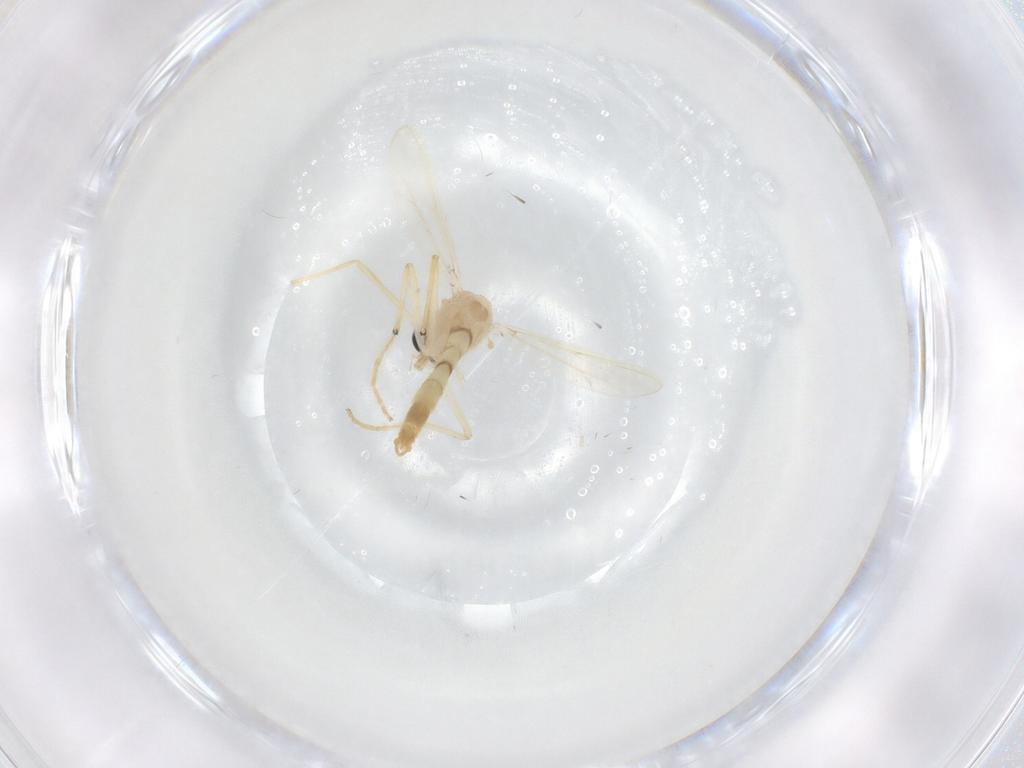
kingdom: Animalia
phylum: Arthropoda
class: Insecta
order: Diptera
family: Chironomidae
